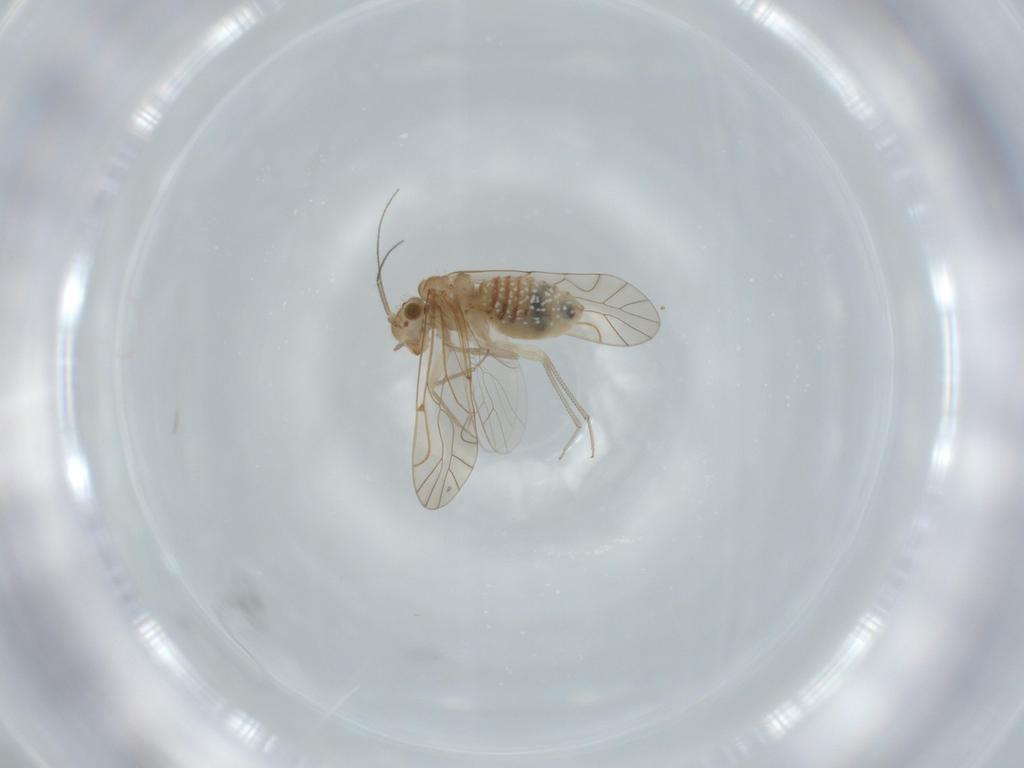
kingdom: Animalia
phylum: Arthropoda
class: Insecta
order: Psocodea
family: Lachesillidae
